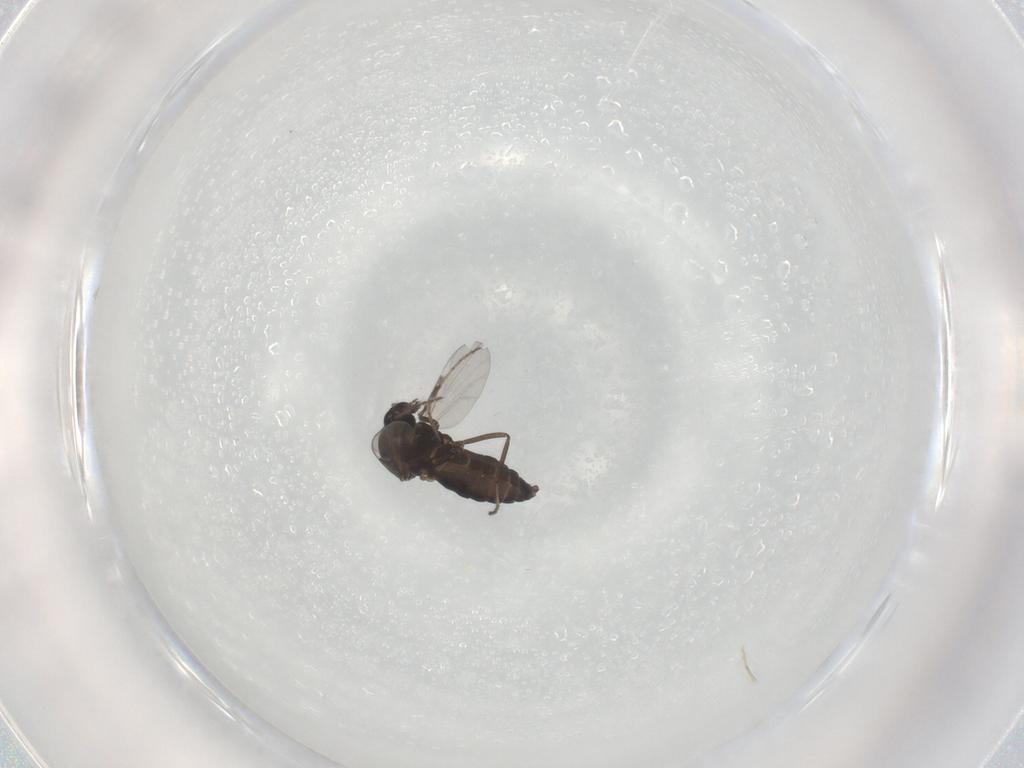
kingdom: Animalia
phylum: Arthropoda
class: Insecta
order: Diptera
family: Ceratopogonidae
